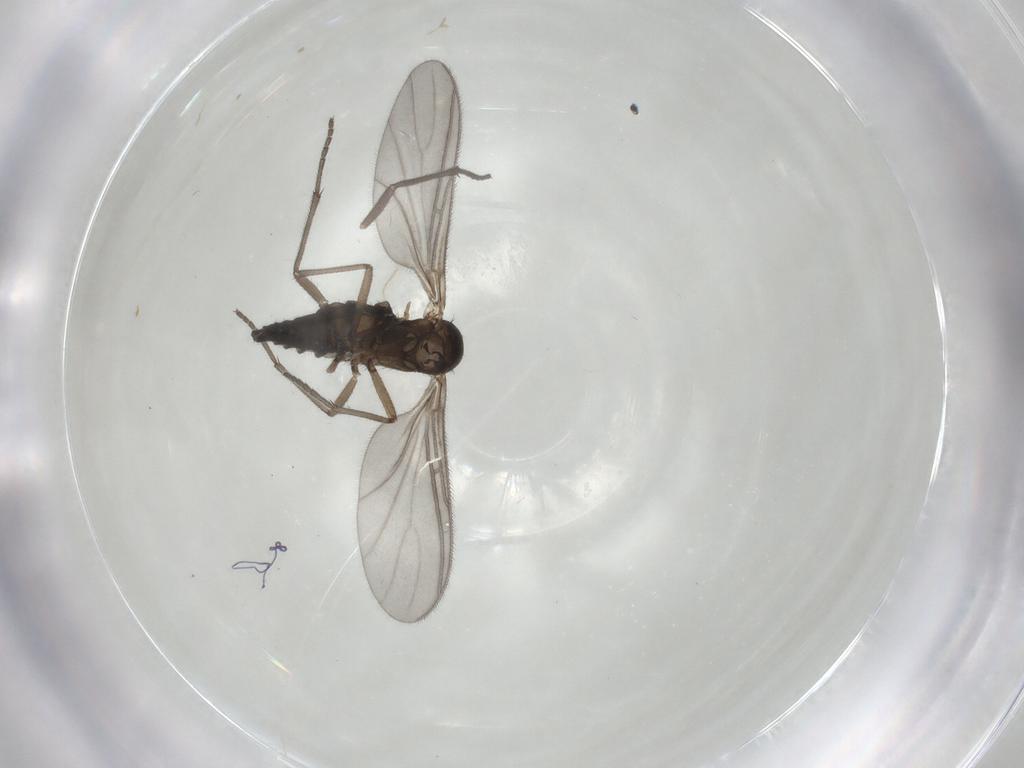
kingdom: Animalia
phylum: Arthropoda
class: Insecta
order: Diptera
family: Sciaridae
